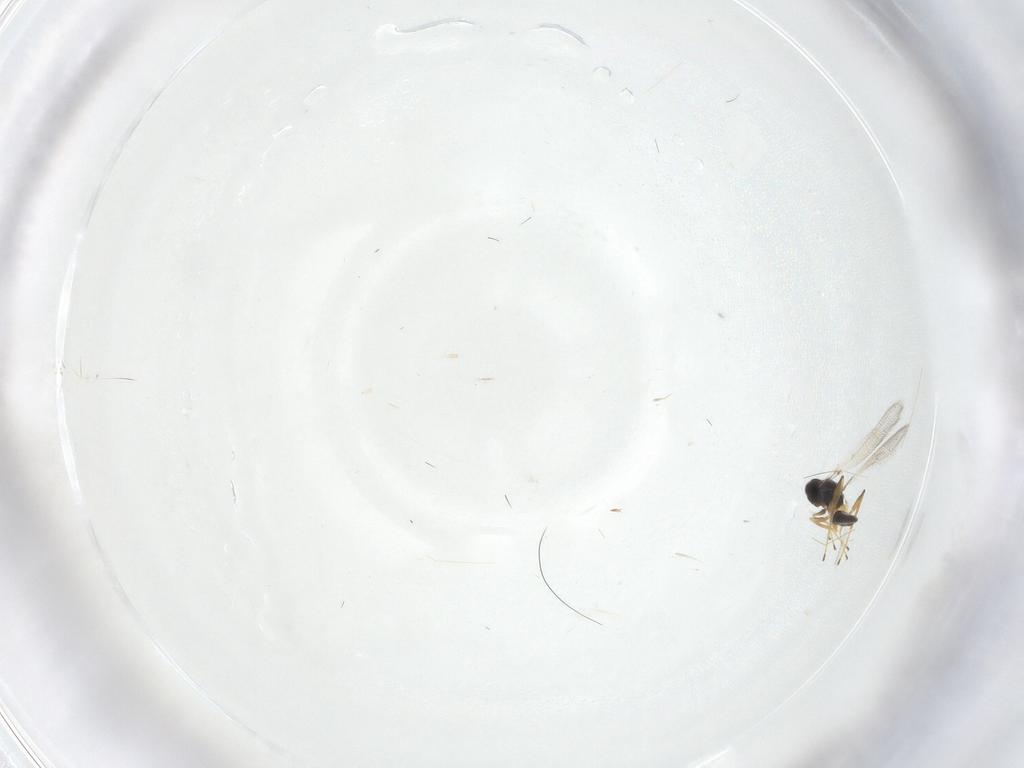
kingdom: Animalia
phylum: Arthropoda
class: Insecta
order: Hymenoptera
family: Mymaridae
